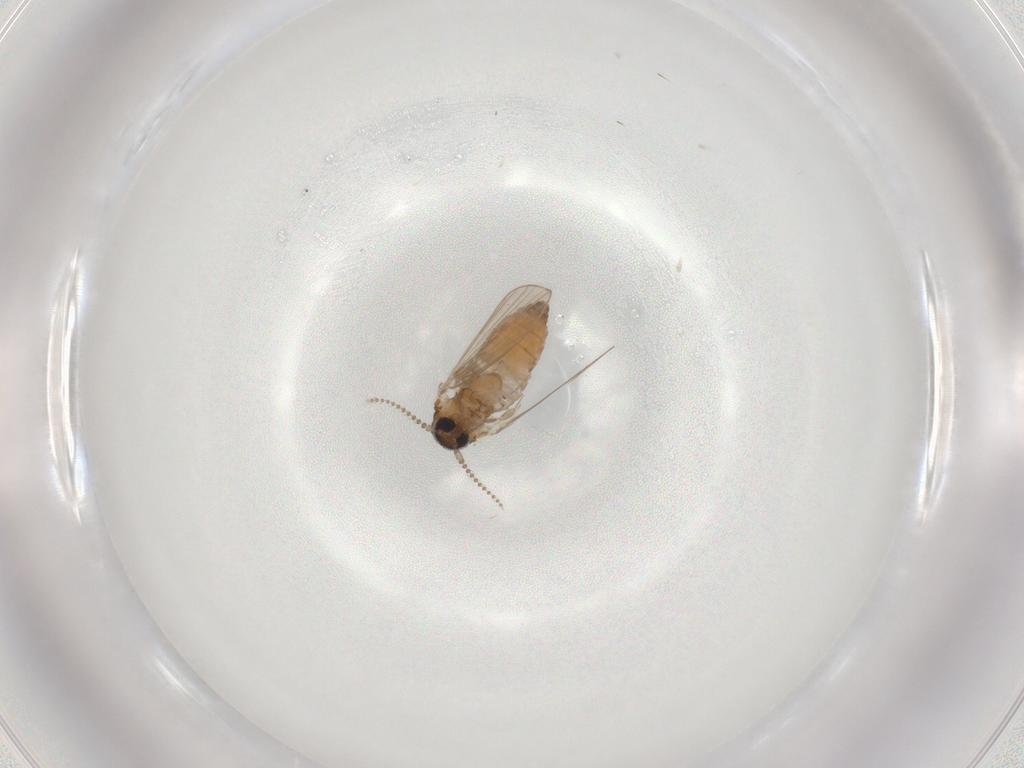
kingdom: Animalia
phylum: Arthropoda
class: Insecta
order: Diptera
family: Psychodidae
